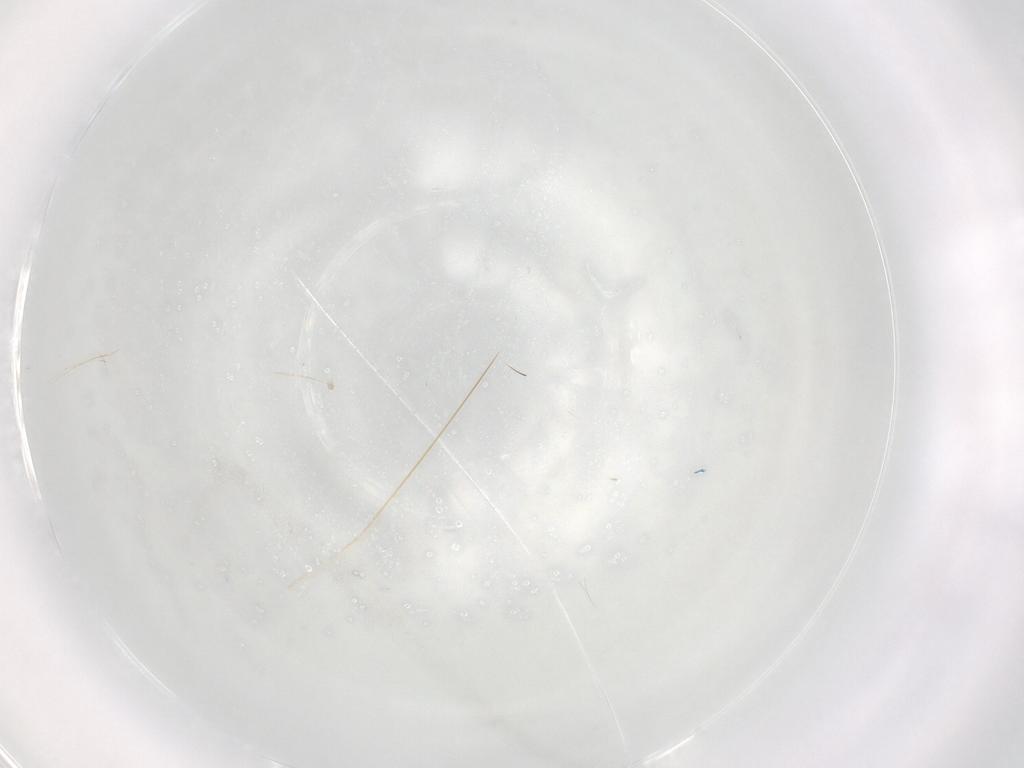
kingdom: Animalia
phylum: Arthropoda
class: Insecta
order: Coleoptera
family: Carabidae
